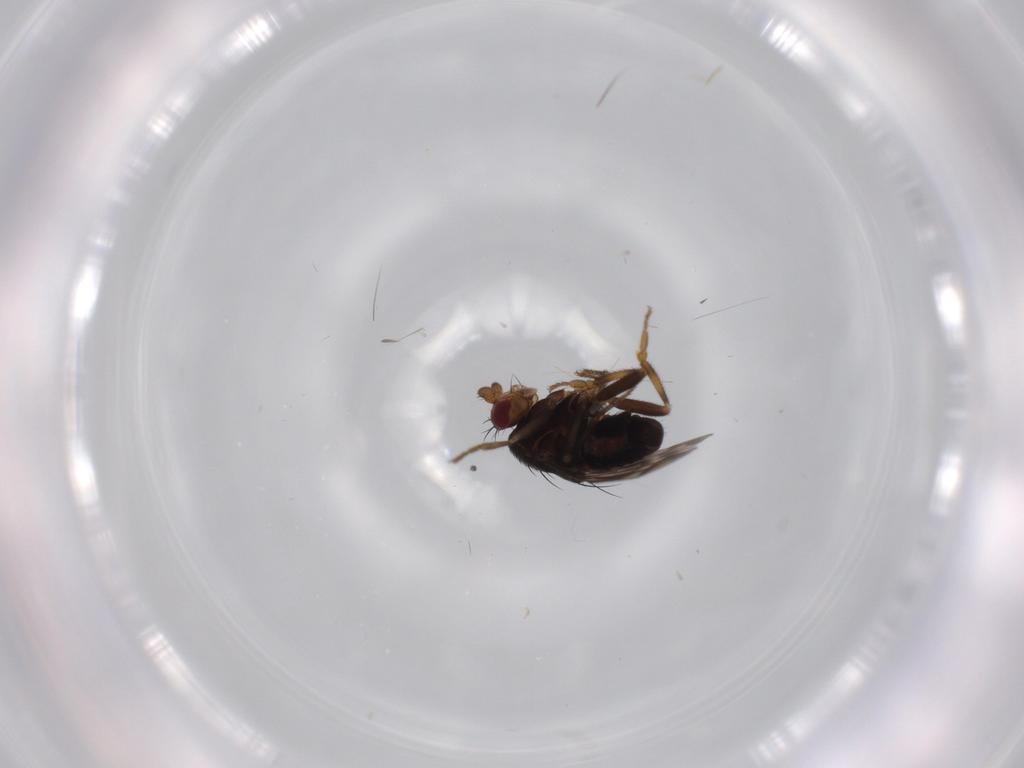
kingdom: Animalia
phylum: Arthropoda
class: Insecta
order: Diptera
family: Sphaeroceridae
